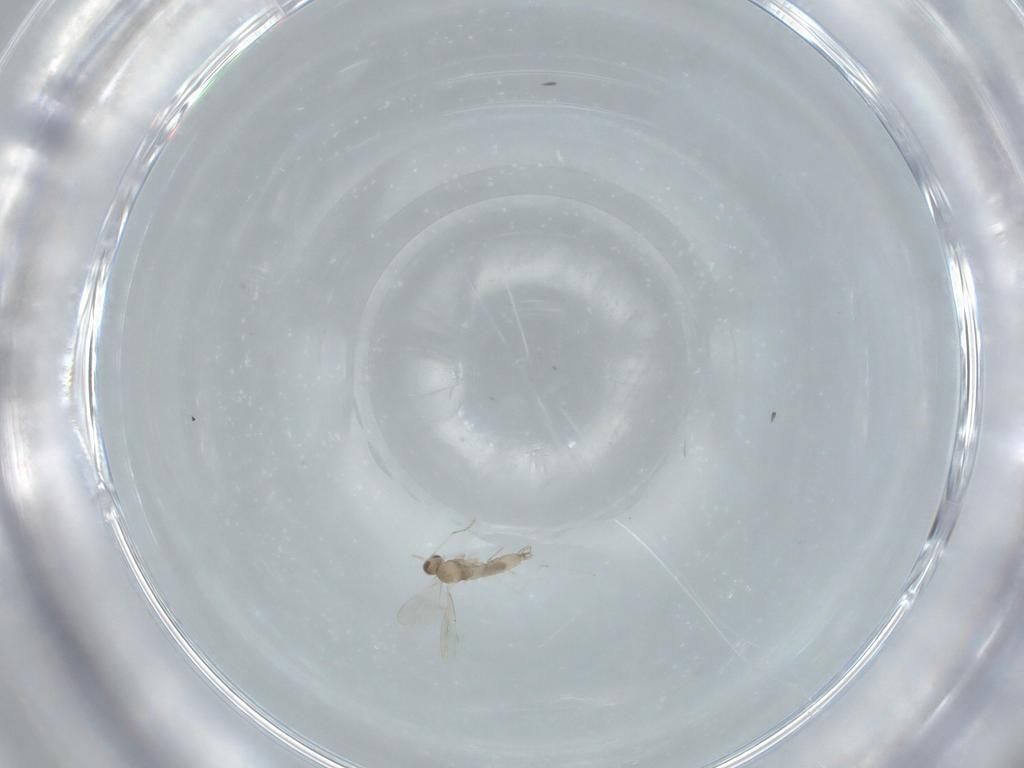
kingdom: Animalia
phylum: Arthropoda
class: Insecta
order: Diptera
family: Cecidomyiidae
